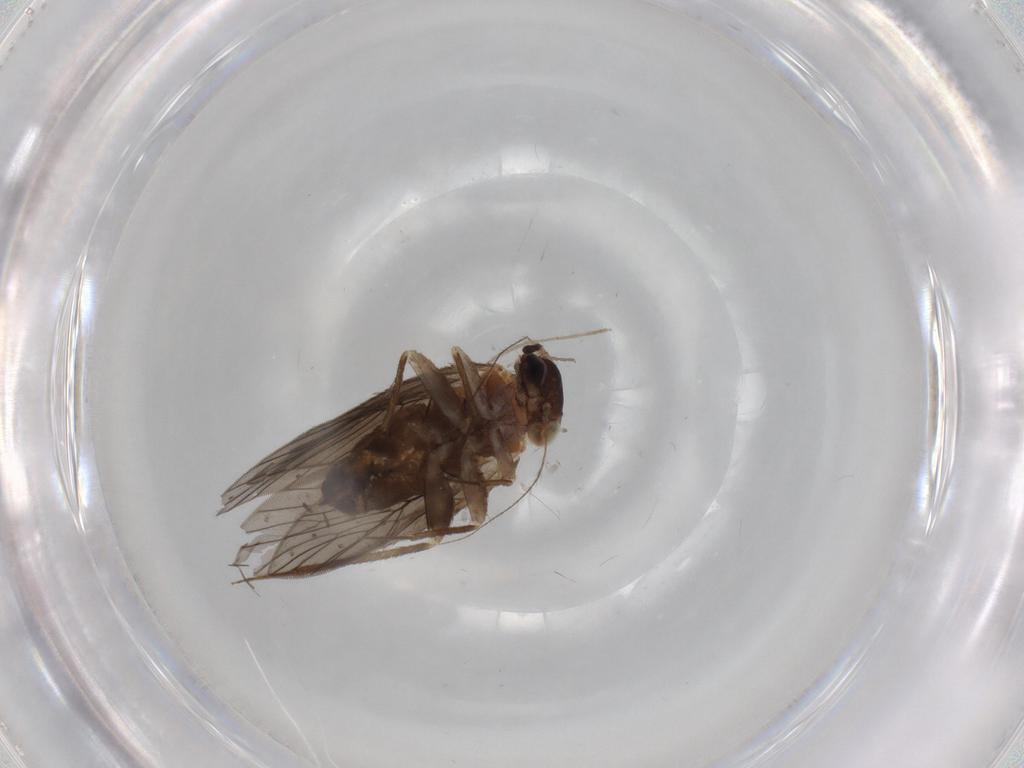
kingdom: Animalia
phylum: Arthropoda
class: Insecta
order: Psocodea
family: Lepidopsocidae
